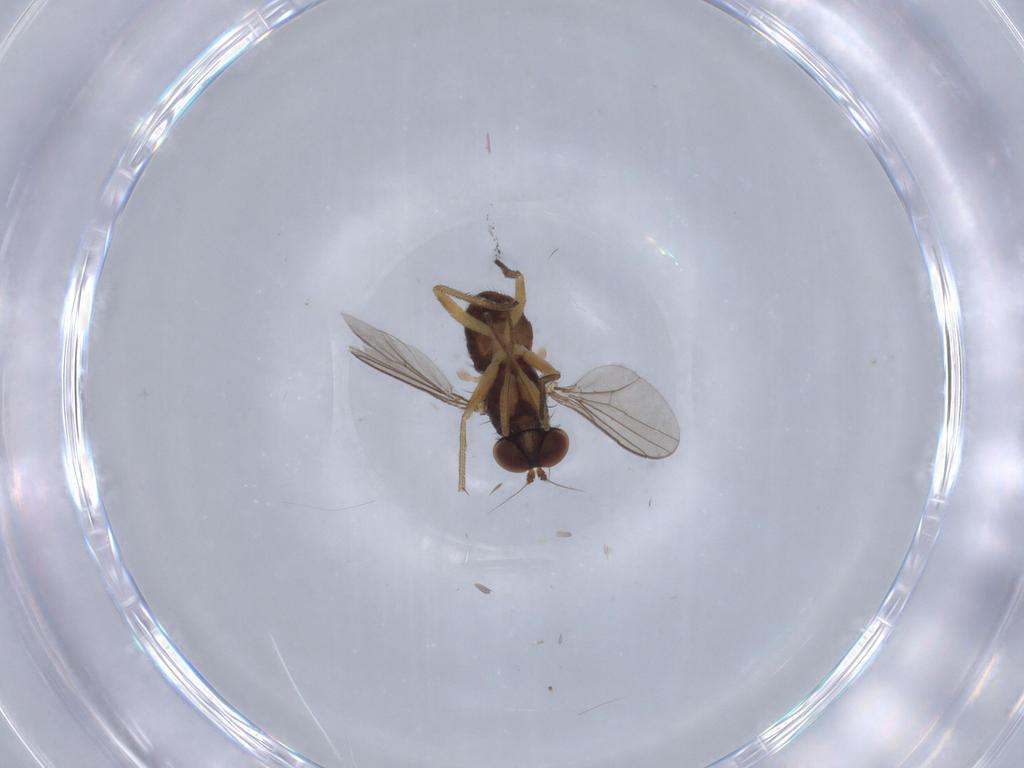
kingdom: Animalia
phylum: Arthropoda
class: Insecta
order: Diptera
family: Dolichopodidae
